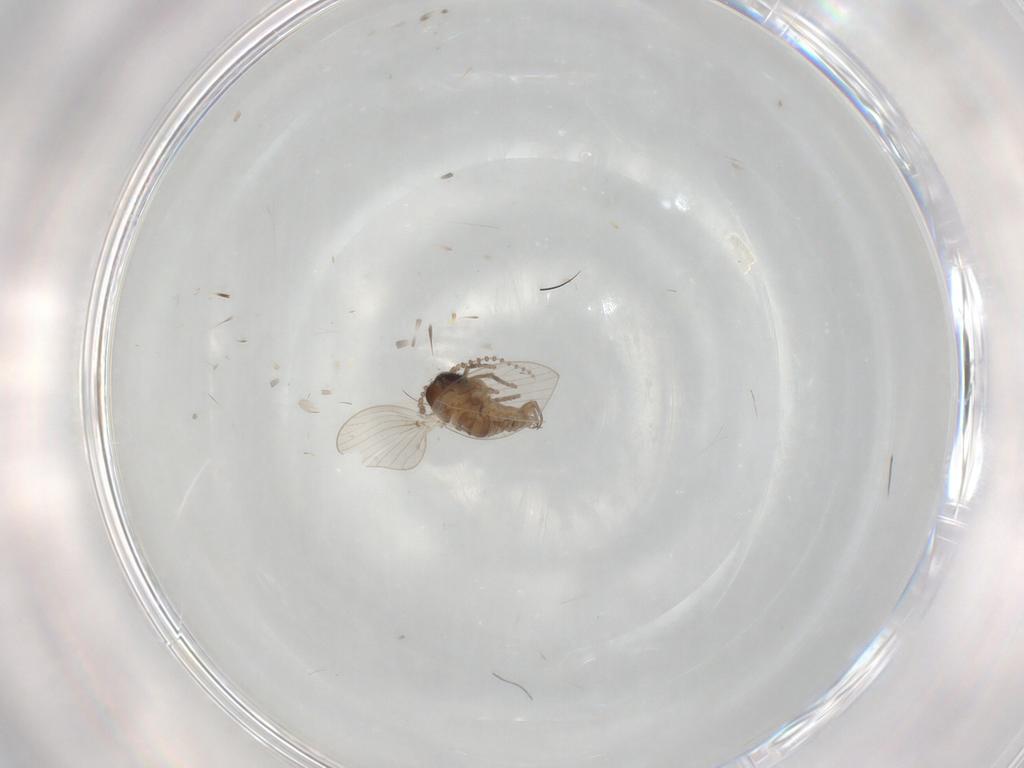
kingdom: Animalia
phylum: Arthropoda
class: Insecta
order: Diptera
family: Psychodidae
